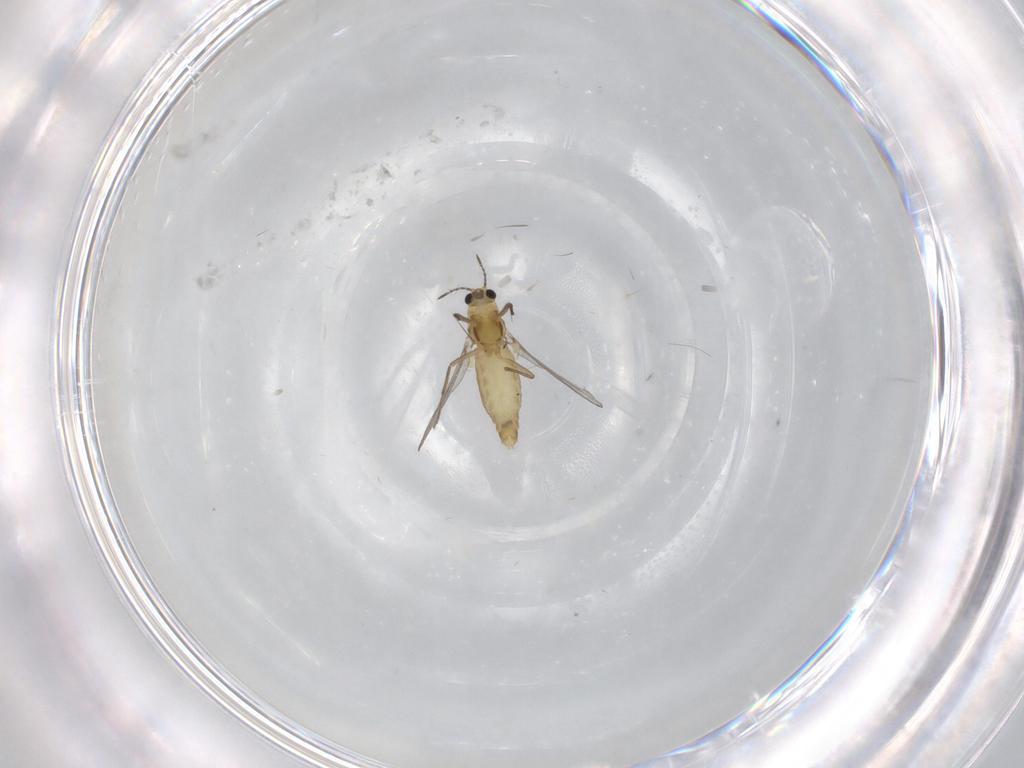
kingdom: Animalia
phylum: Arthropoda
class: Insecta
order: Diptera
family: Chironomidae
